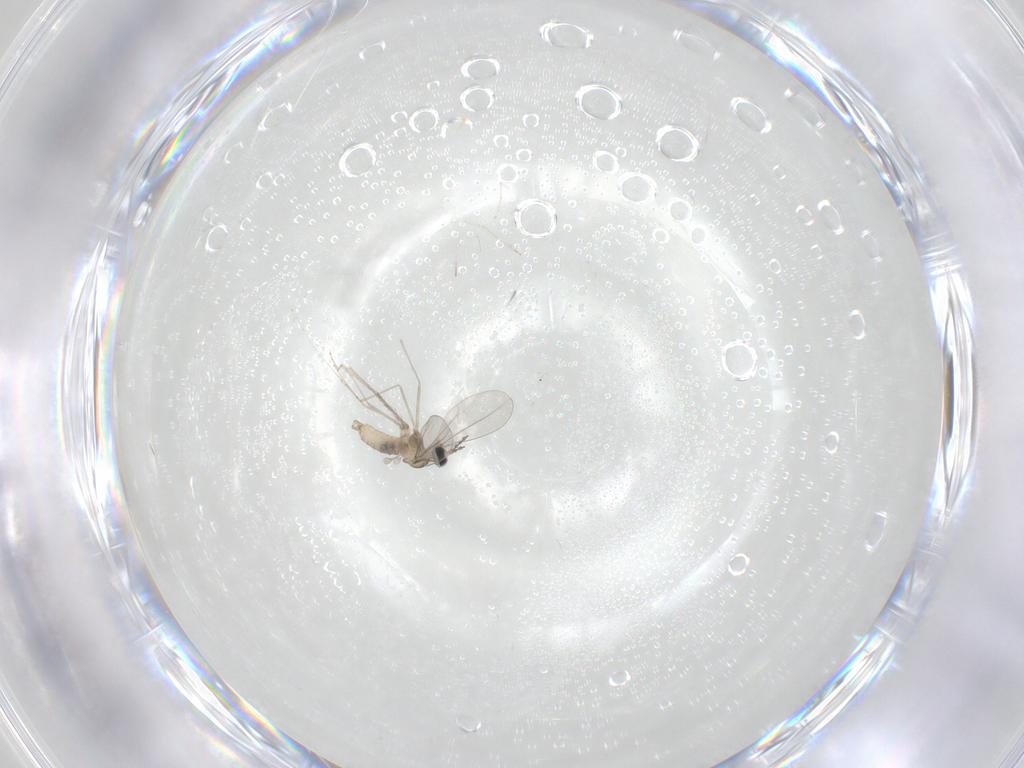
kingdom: Animalia
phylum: Arthropoda
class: Insecta
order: Diptera
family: Cecidomyiidae
